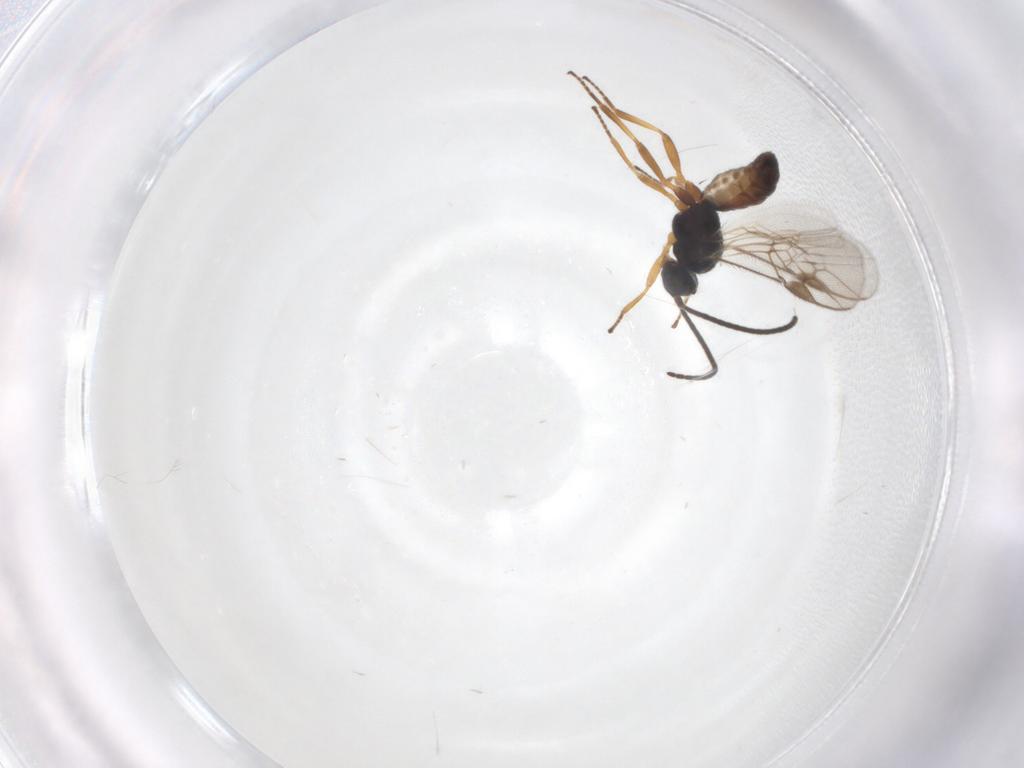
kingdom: Animalia
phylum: Arthropoda
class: Insecta
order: Hymenoptera
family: Braconidae
